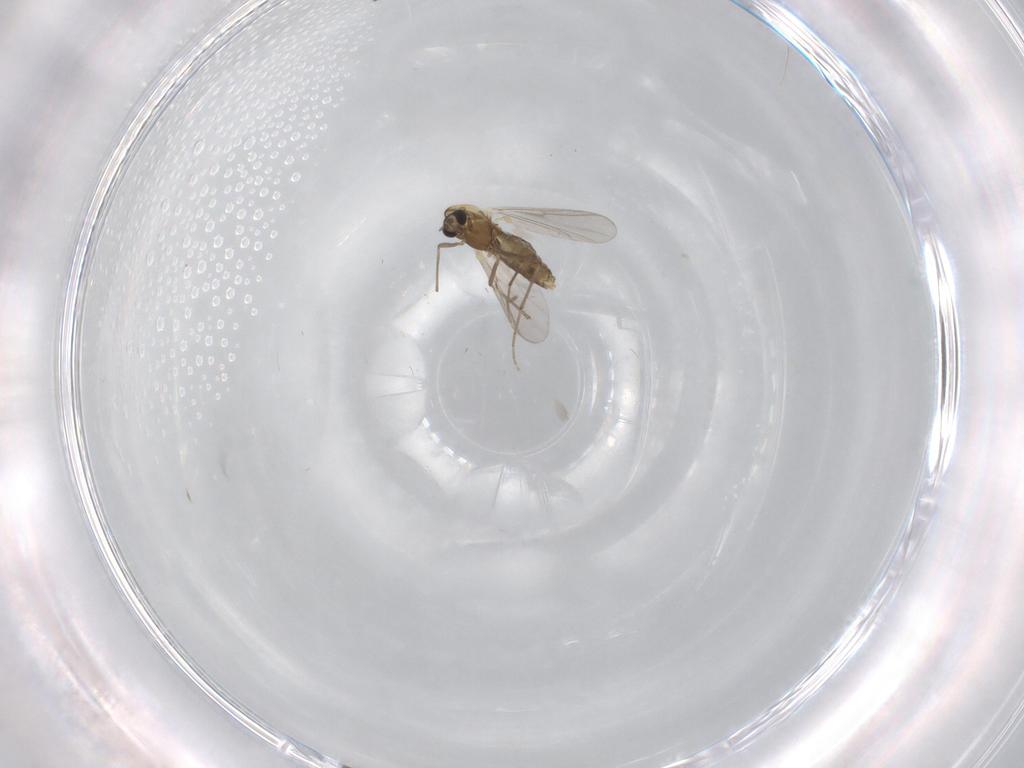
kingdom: Animalia
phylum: Arthropoda
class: Insecta
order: Diptera
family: Chironomidae
